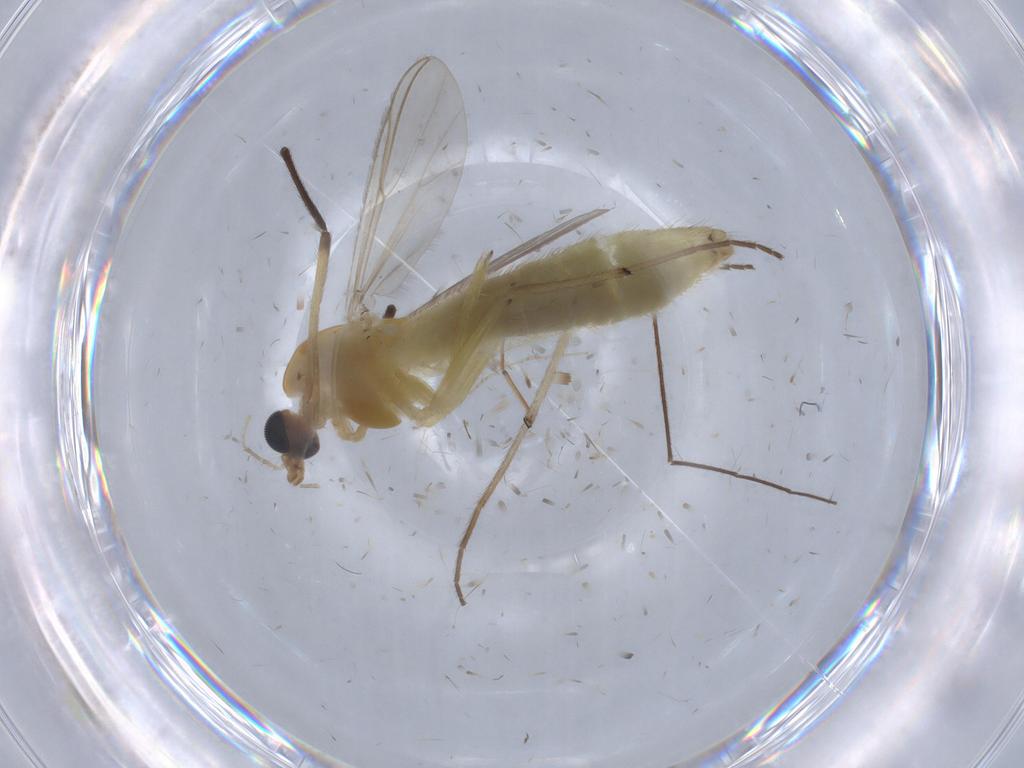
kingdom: Animalia
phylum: Arthropoda
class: Insecta
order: Diptera
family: Chironomidae
